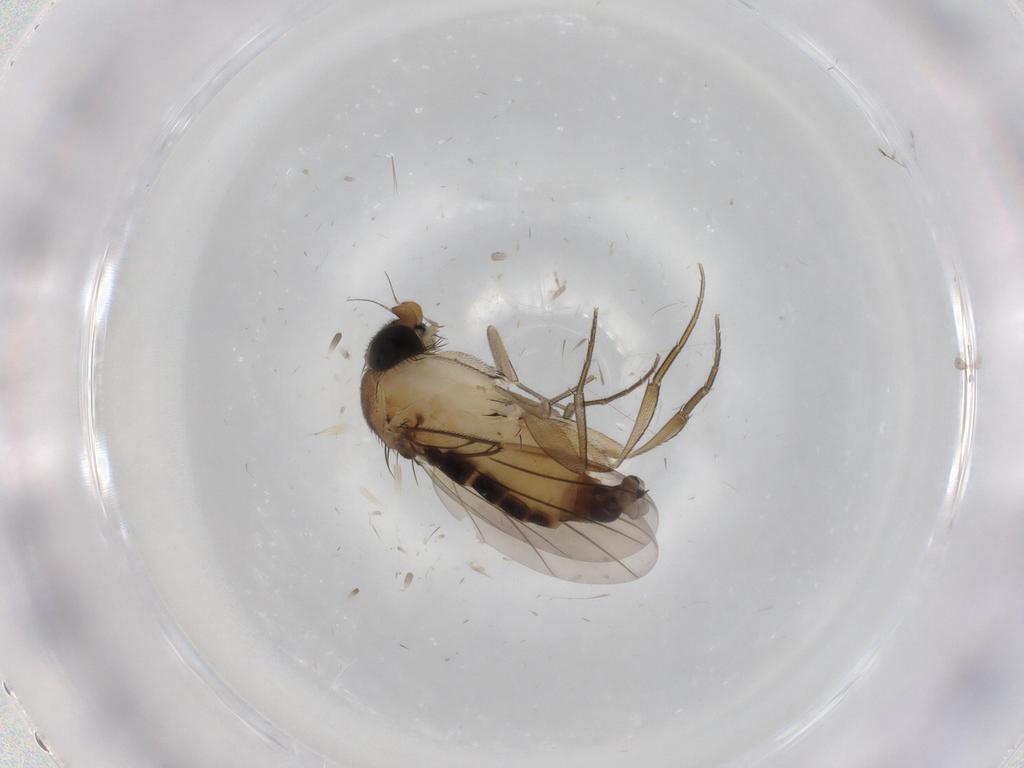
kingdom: Animalia
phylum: Arthropoda
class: Insecta
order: Diptera
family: Phoridae
